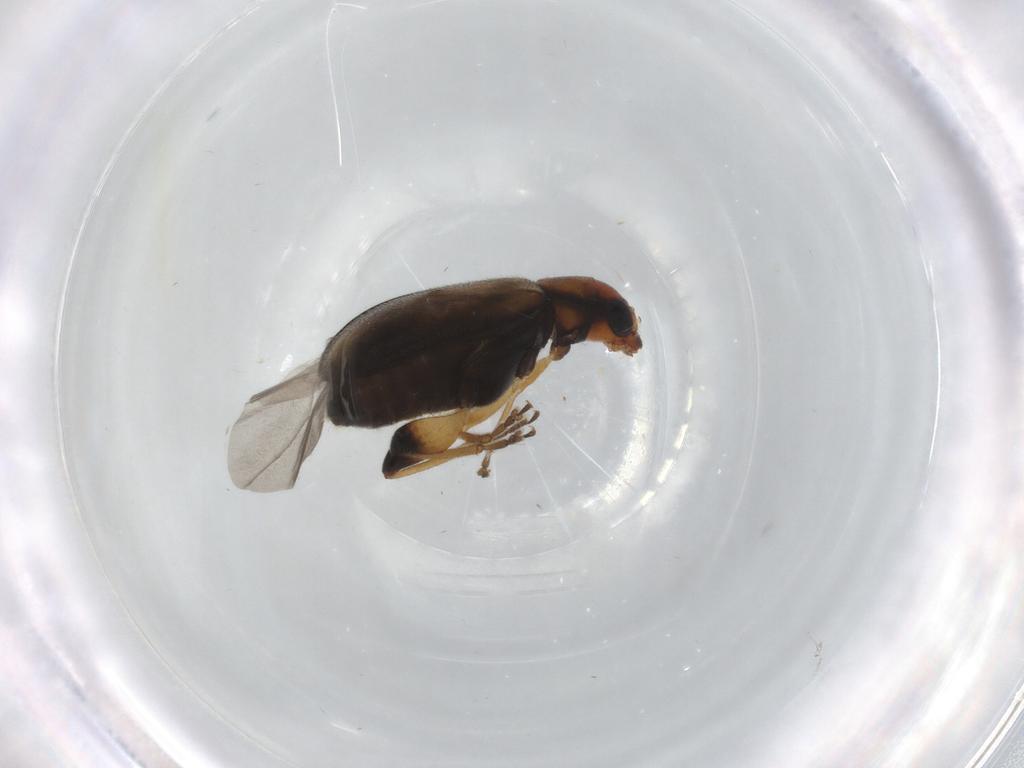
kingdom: Animalia
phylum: Arthropoda
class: Insecta
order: Coleoptera
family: Chrysomelidae
